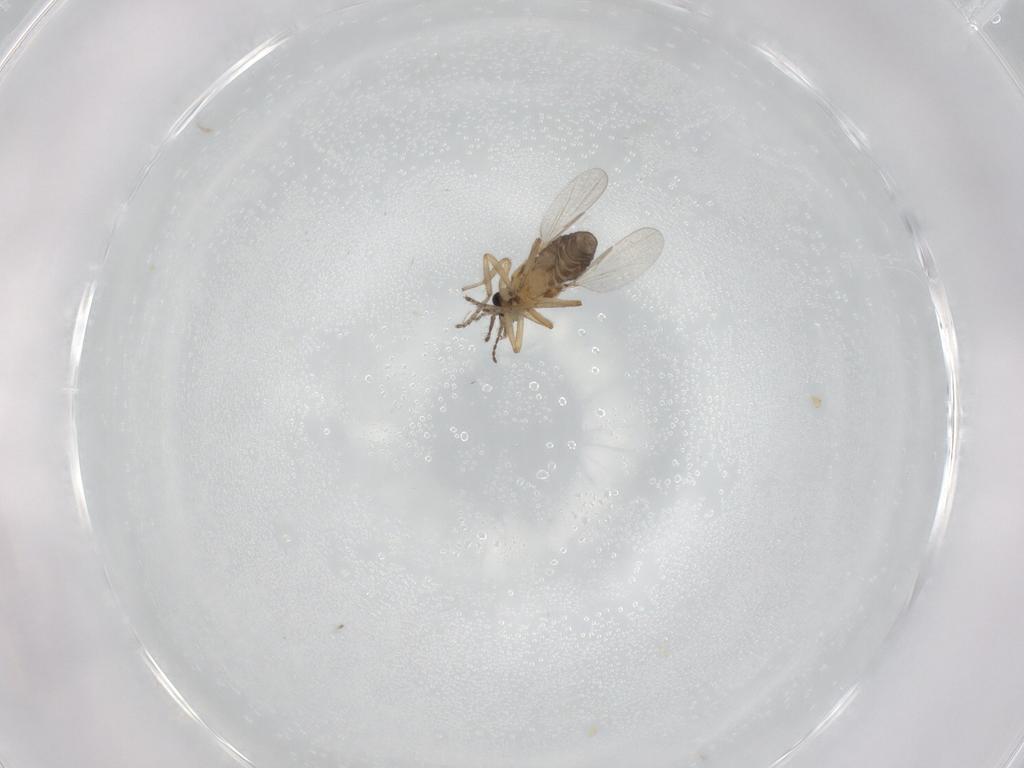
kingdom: Animalia
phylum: Arthropoda
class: Insecta
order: Diptera
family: Ceratopogonidae
